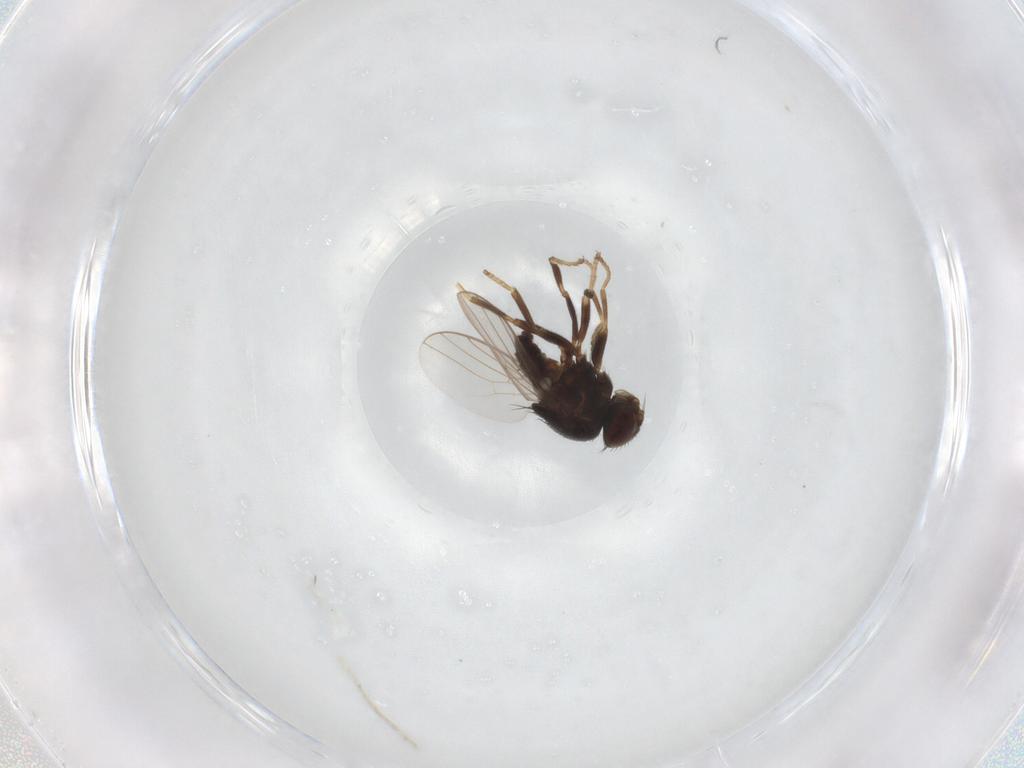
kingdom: Animalia
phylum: Arthropoda
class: Insecta
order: Diptera
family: Chloropidae
